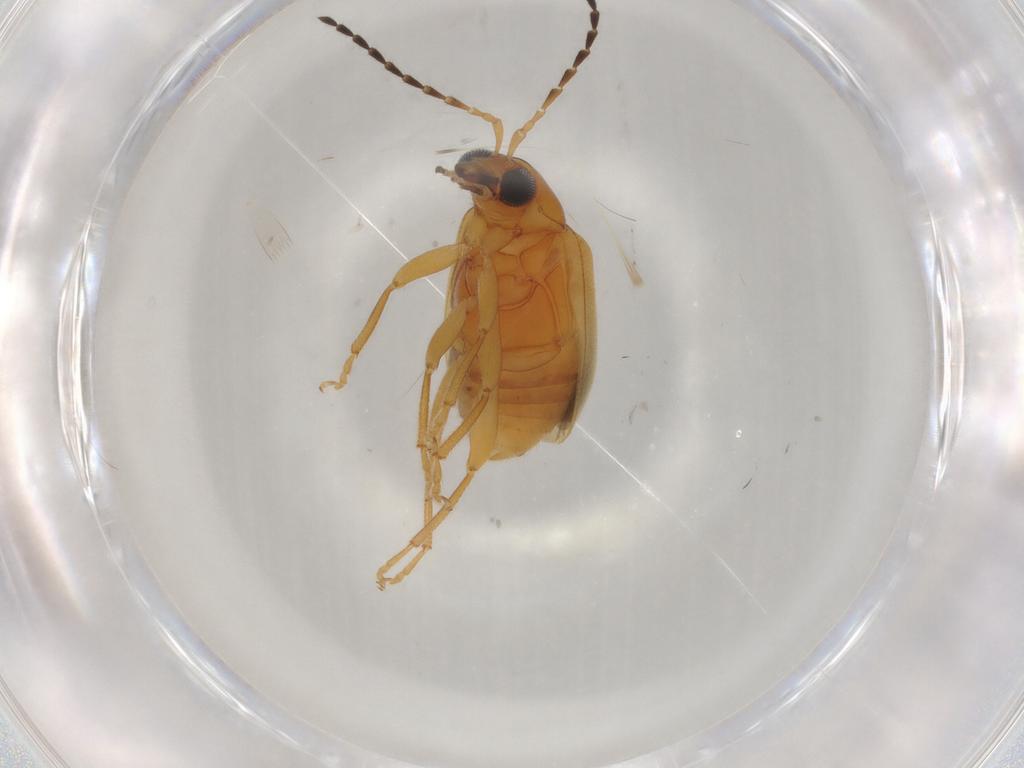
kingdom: Animalia
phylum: Arthropoda
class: Insecta
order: Coleoptera
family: Chrysomelidae
